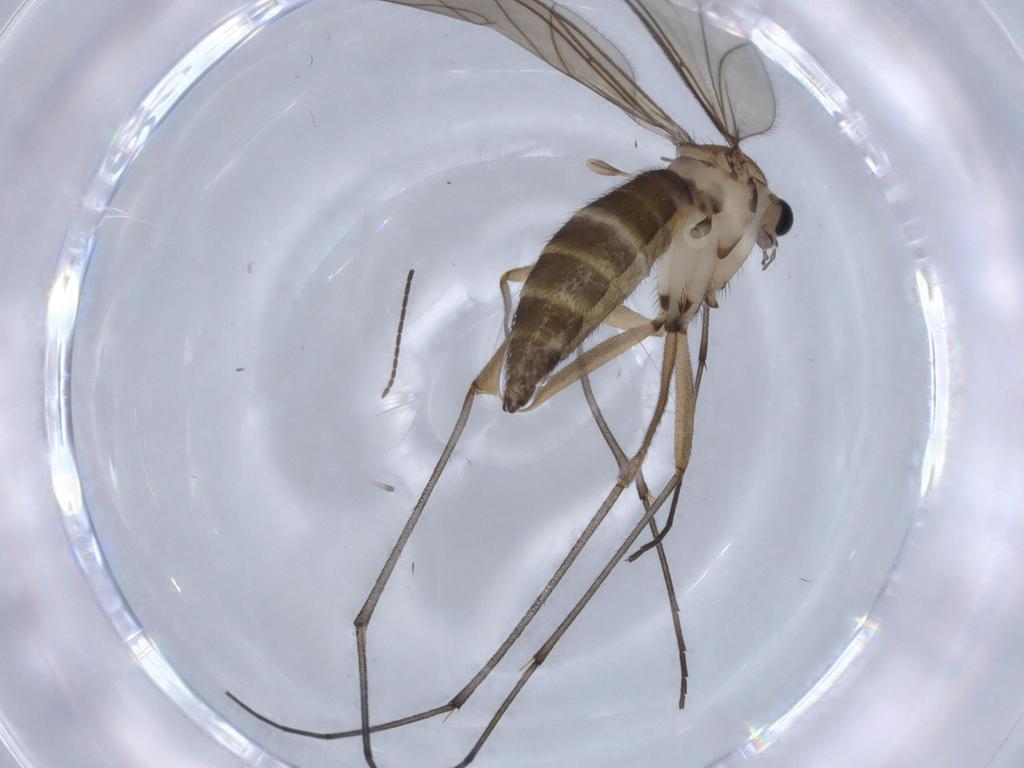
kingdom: Animalia
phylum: Arthropoda
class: Insecta
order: Diptera
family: Sciaridae
